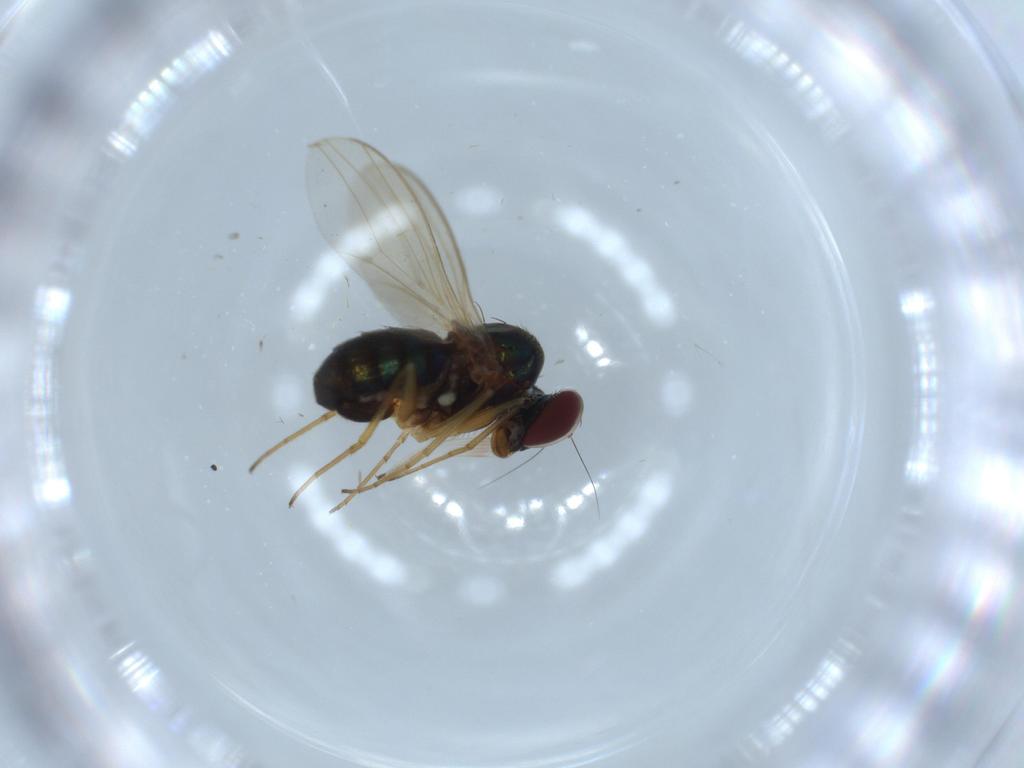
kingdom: Animalia
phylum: Arthropoda
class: Insecta
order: Diptera
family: Dolichopodidae
